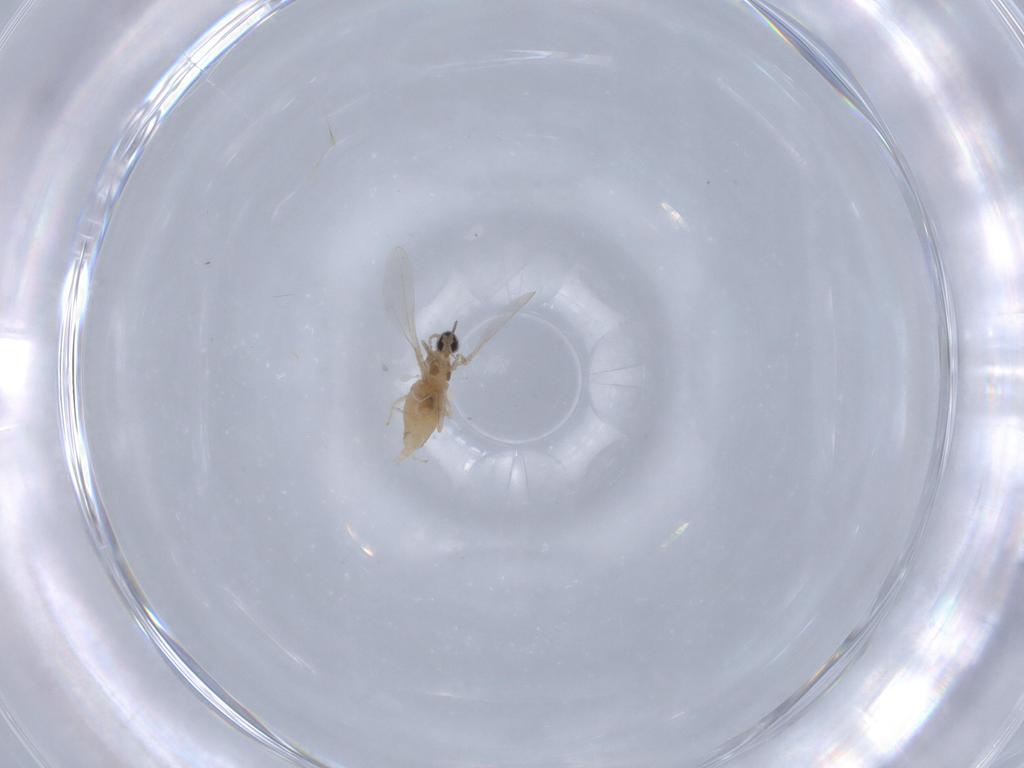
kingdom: Animalia
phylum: Arthropoda
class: Insecta
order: Diptera
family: Cecidomyiidae
